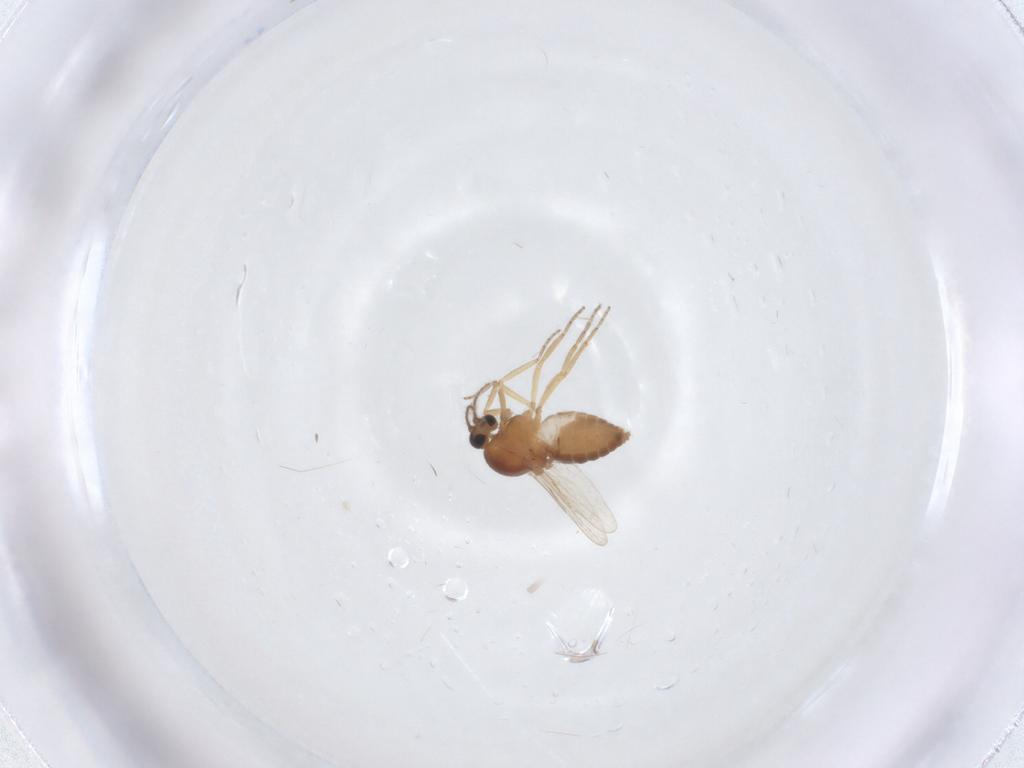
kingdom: Animalia
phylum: Arthropoda
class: Insecta
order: Diptera
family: Ceratopogonidae
